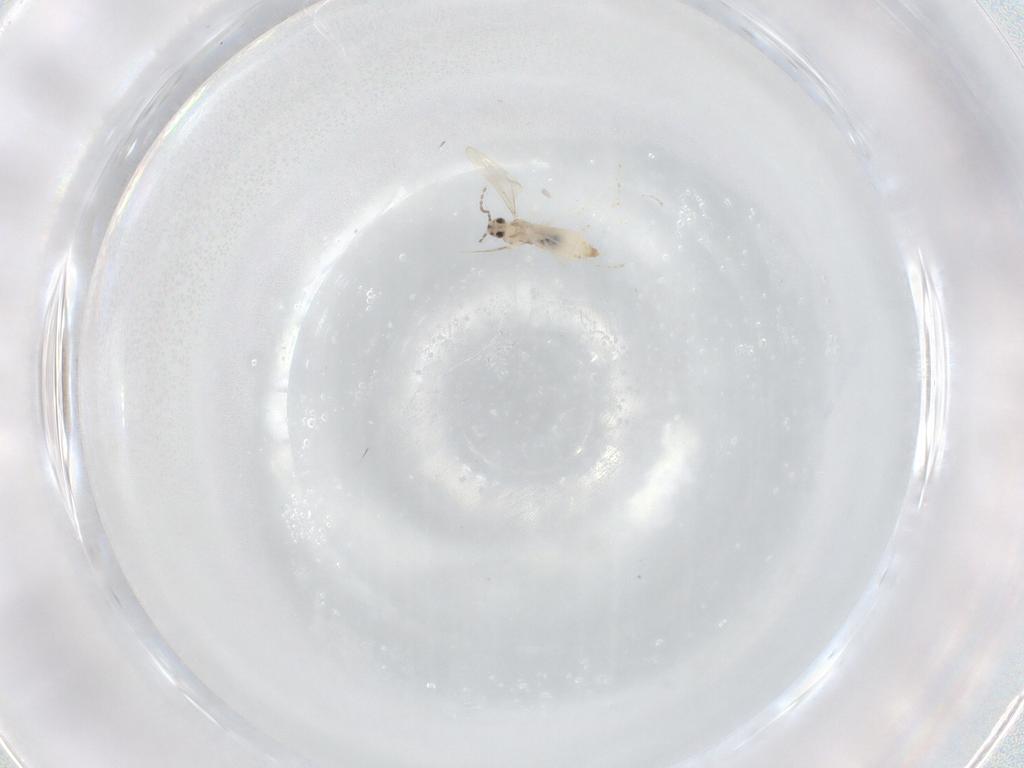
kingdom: Animalia
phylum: Arthropoda
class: Insecta
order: Diptera
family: Cecidomyiidae
